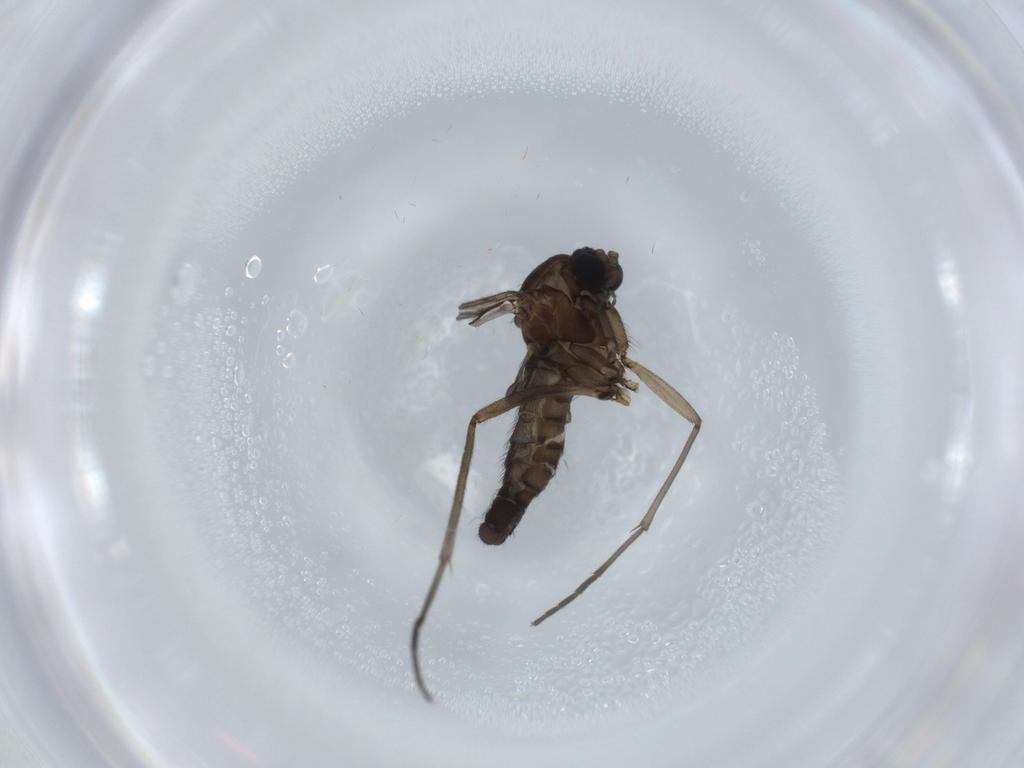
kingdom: Animalia
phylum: Arthropoda
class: Insecta
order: Diptera
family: Sciaridae
